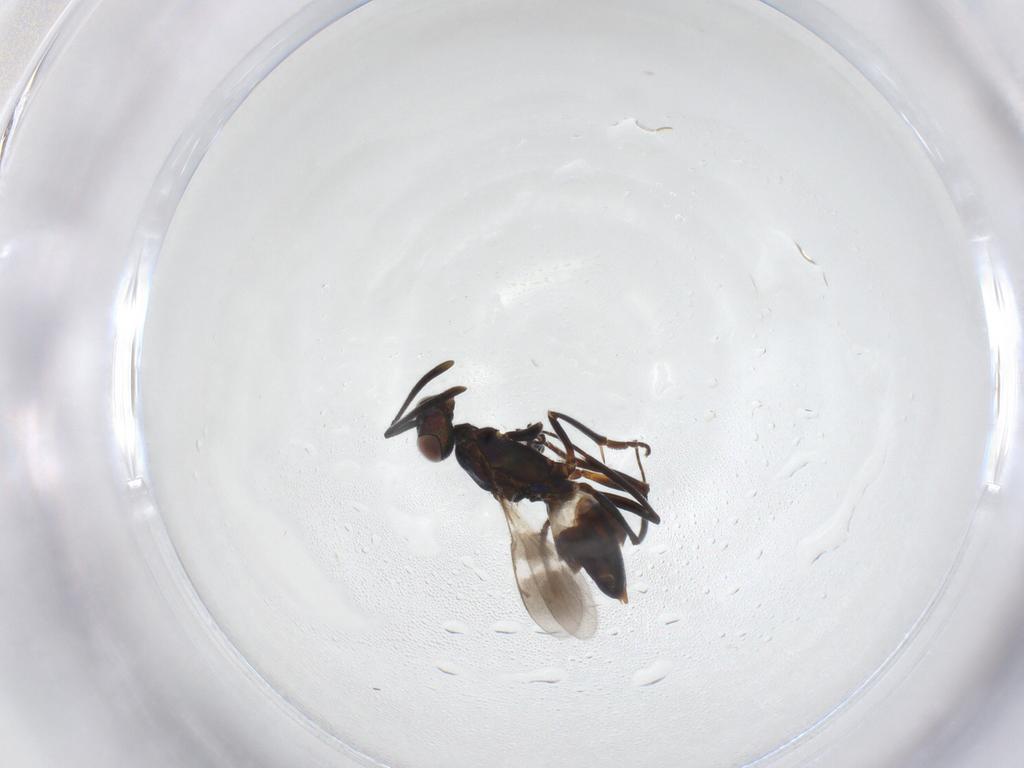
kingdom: Animalia
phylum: Arthropoda
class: Insecta
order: Hymenoptera
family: Eupelmidae
